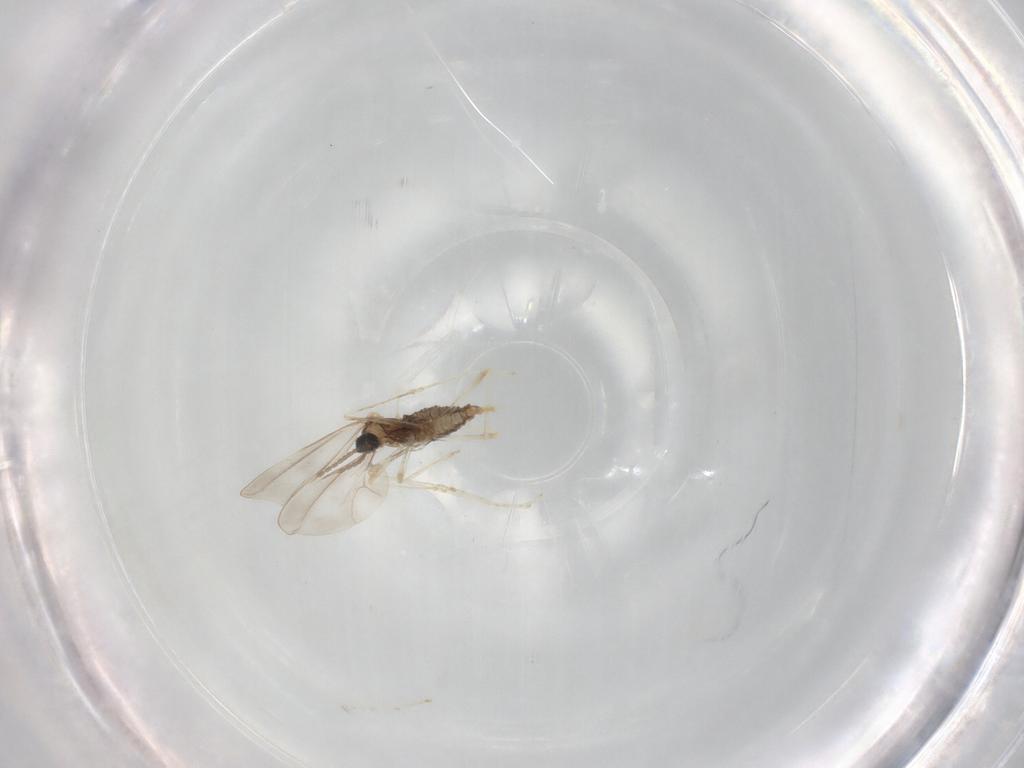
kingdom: Animalia
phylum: Arthropoda
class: Insecta
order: Diptera
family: Cecidomyiidae
